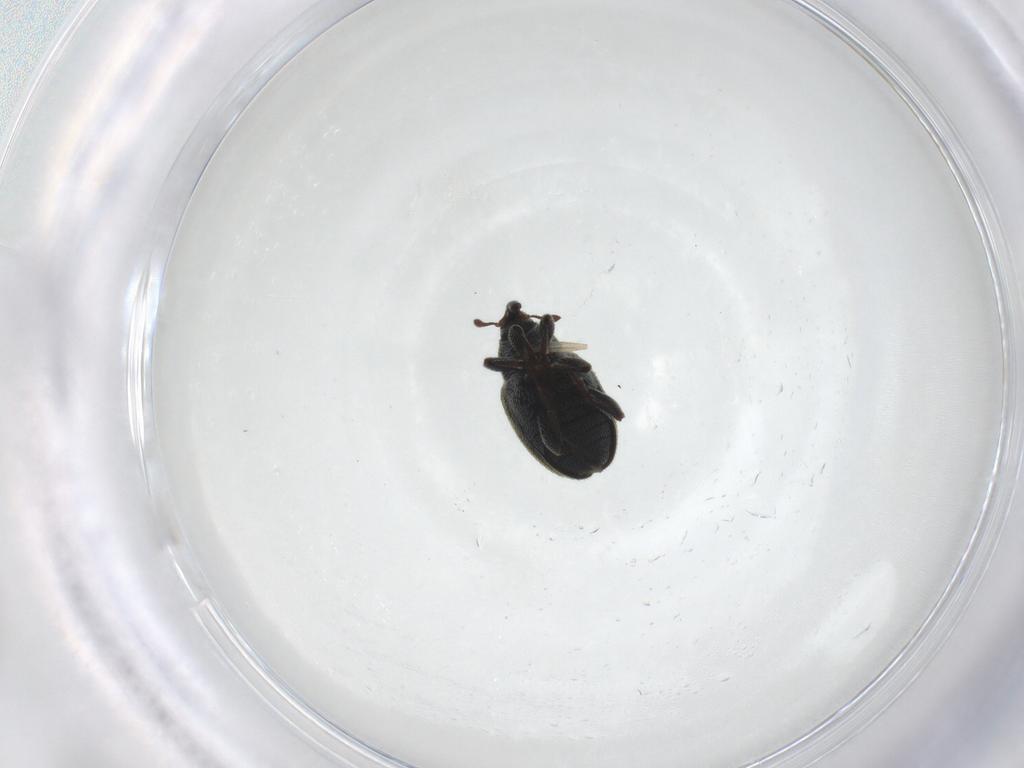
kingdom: Animalia
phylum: Arthropoda
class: Insecta
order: Coleoptera
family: Curculionidae
